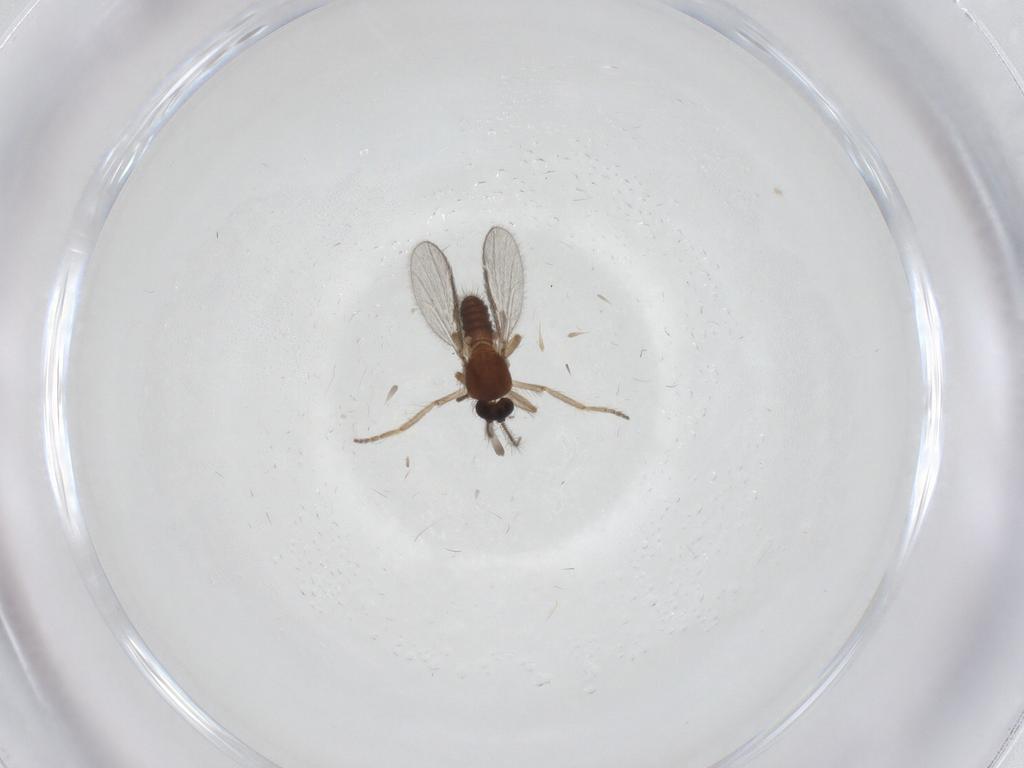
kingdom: Animalia
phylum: Arthropoda
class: Insecta
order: Diptera
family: Ceratopogonidae
